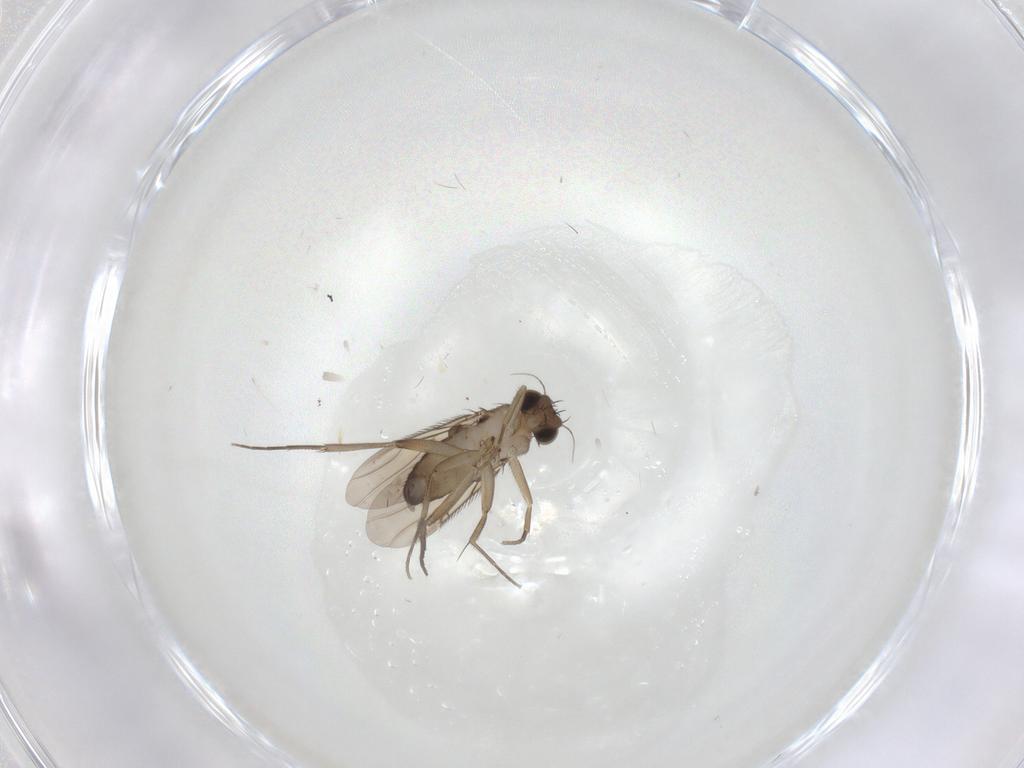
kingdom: Animalia
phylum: Arthropoda
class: Insecta
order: Diptera
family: Phoridae
